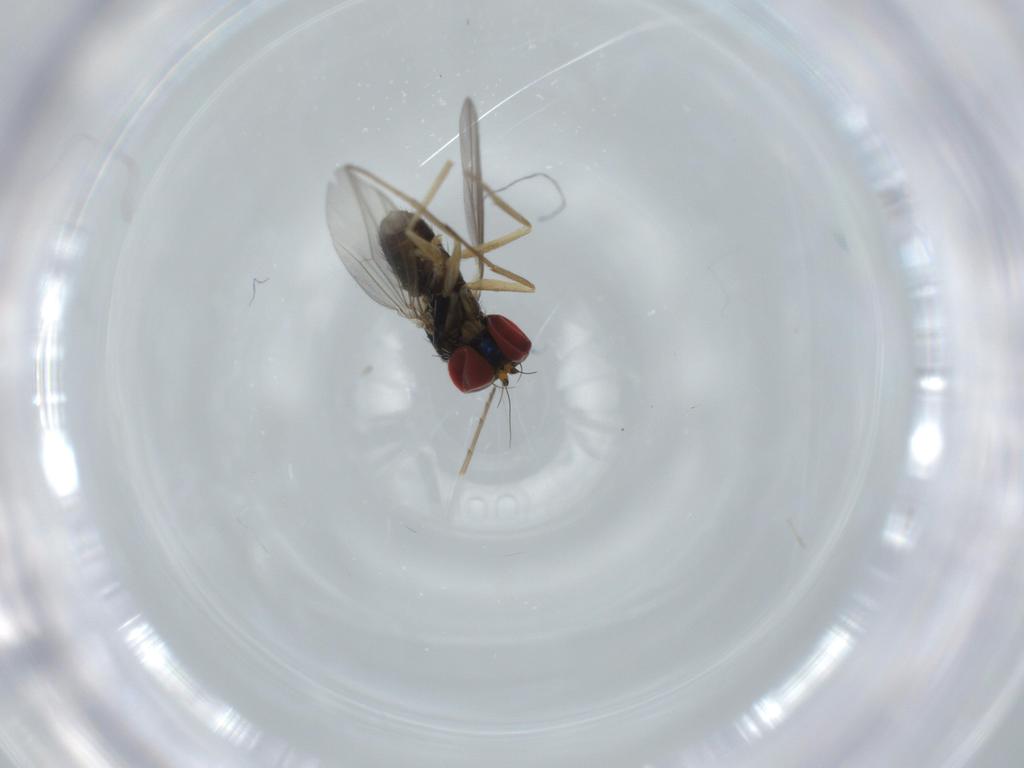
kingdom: Animalia
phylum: Arthropoda
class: Insecta
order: Diptera
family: Dolichopodidae
